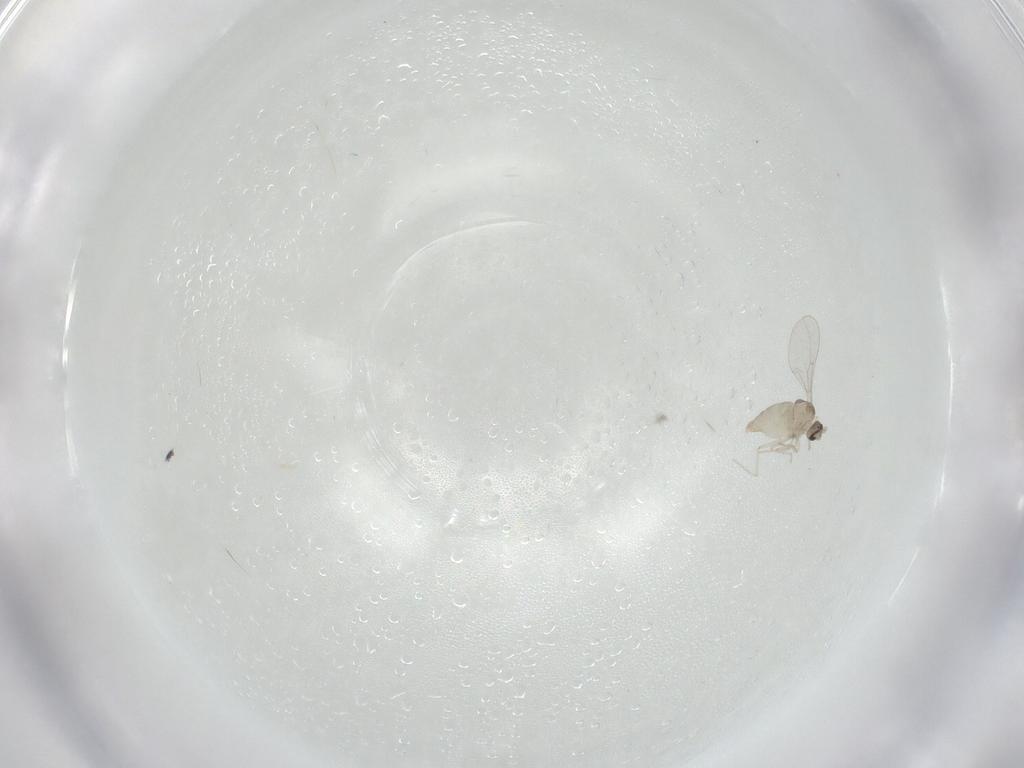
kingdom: Animalia
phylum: Arthropoda
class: Insecta
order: Diptera
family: Cecidomyiidae
